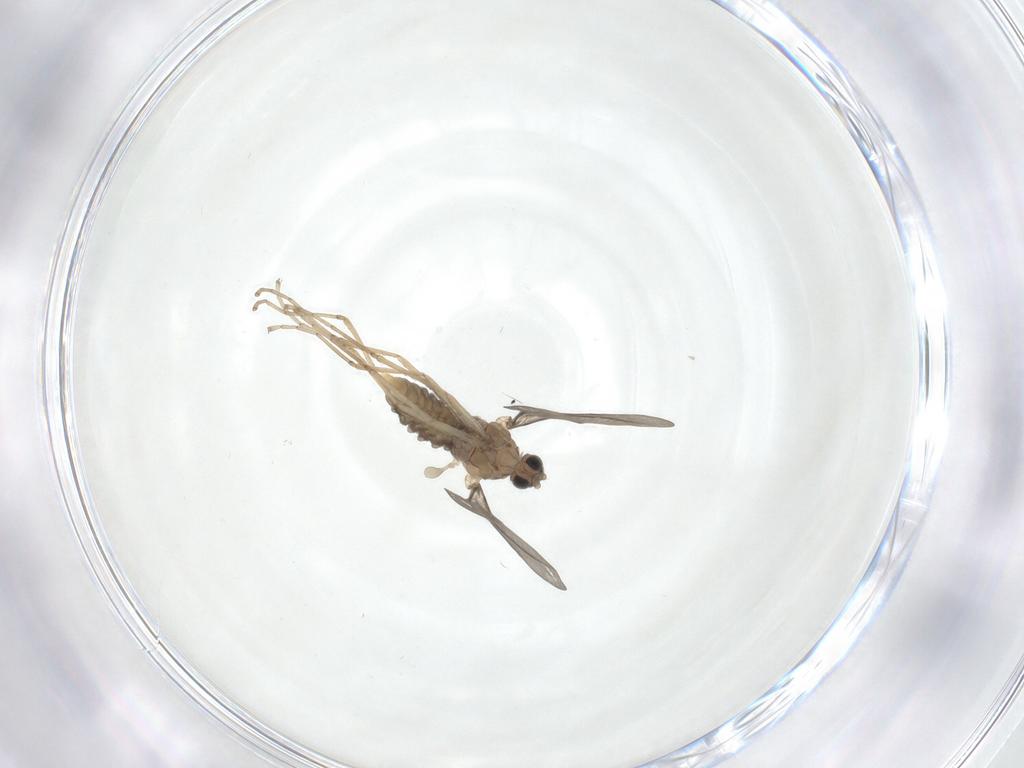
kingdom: Animalia
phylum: Arthropoda
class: Insecta
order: Diptera
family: Cecidomyiidae
